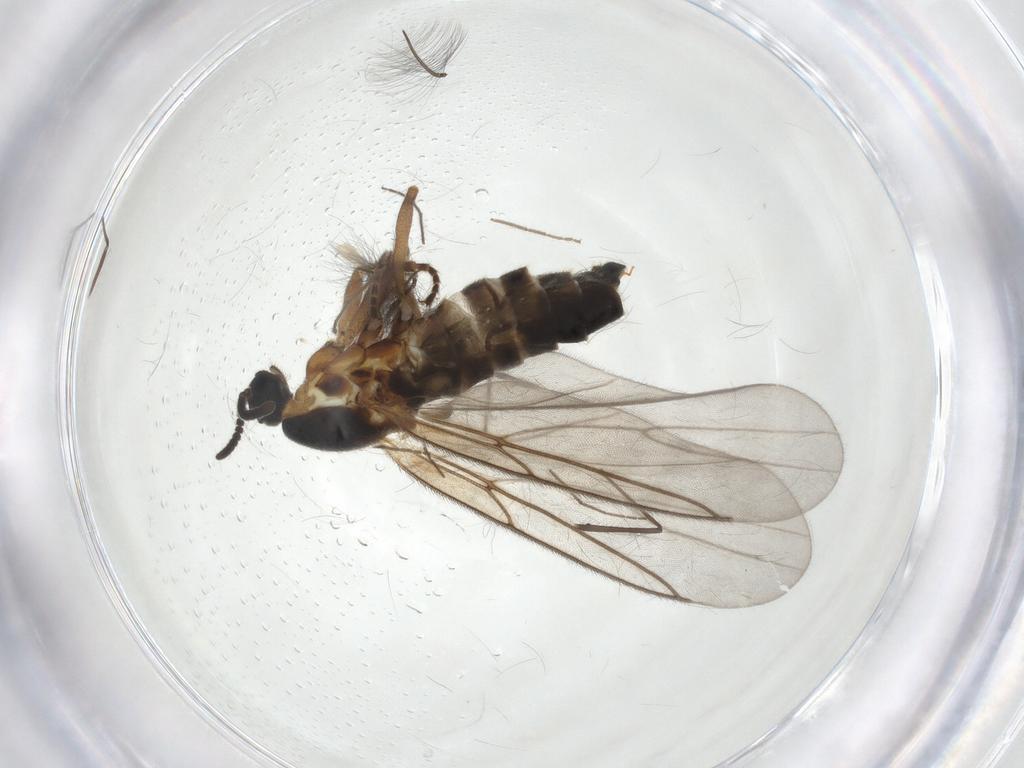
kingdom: Animalia
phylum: Arthropoda
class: Insecta
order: Diptera
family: Scatopsidae
